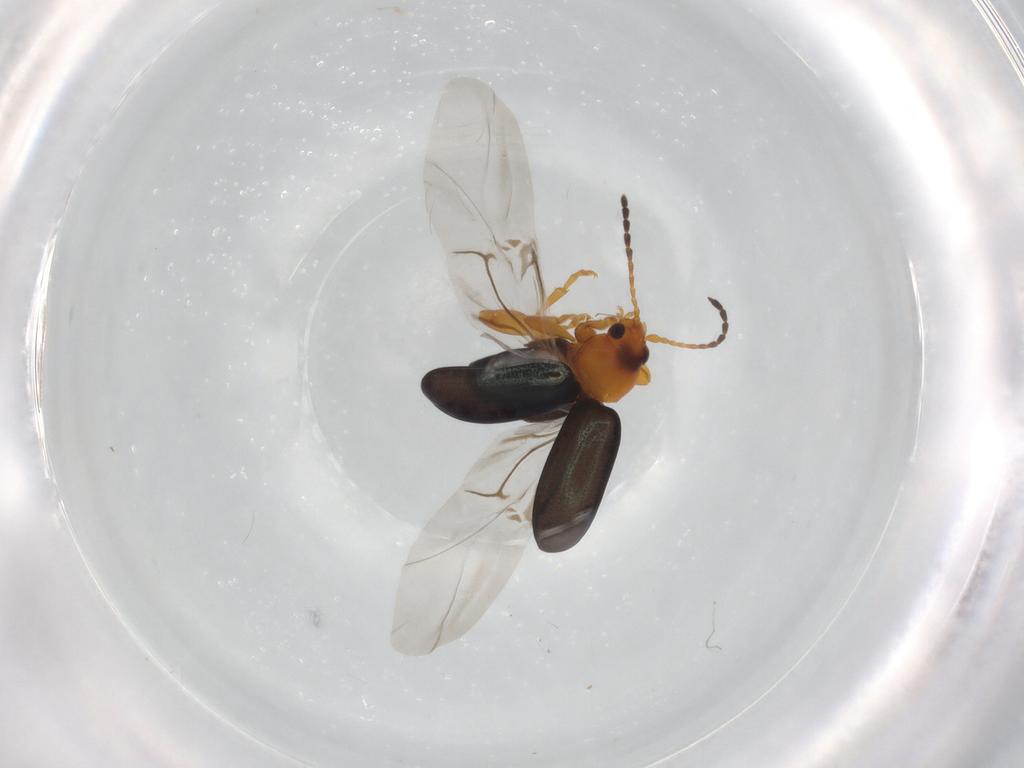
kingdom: Animalia
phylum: Arthropoda
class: Insecta
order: Coleoptera
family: Chrysomelidae
